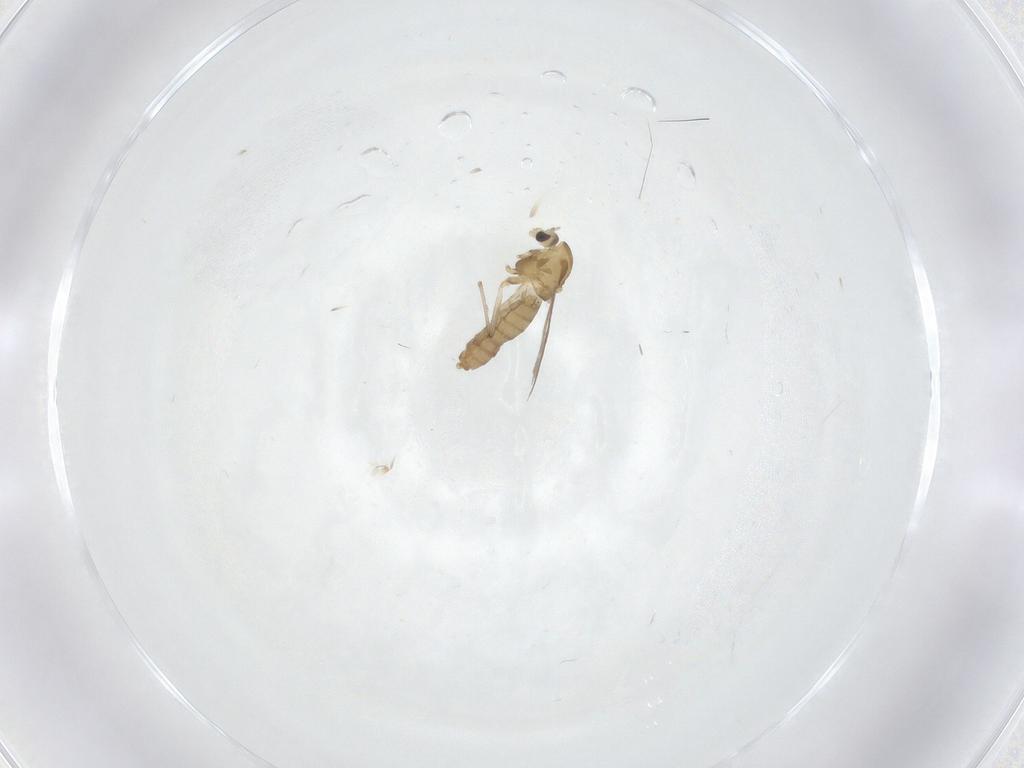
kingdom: Animalia
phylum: Arthropoda
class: Insecta
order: Diptera
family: Chironomidae
